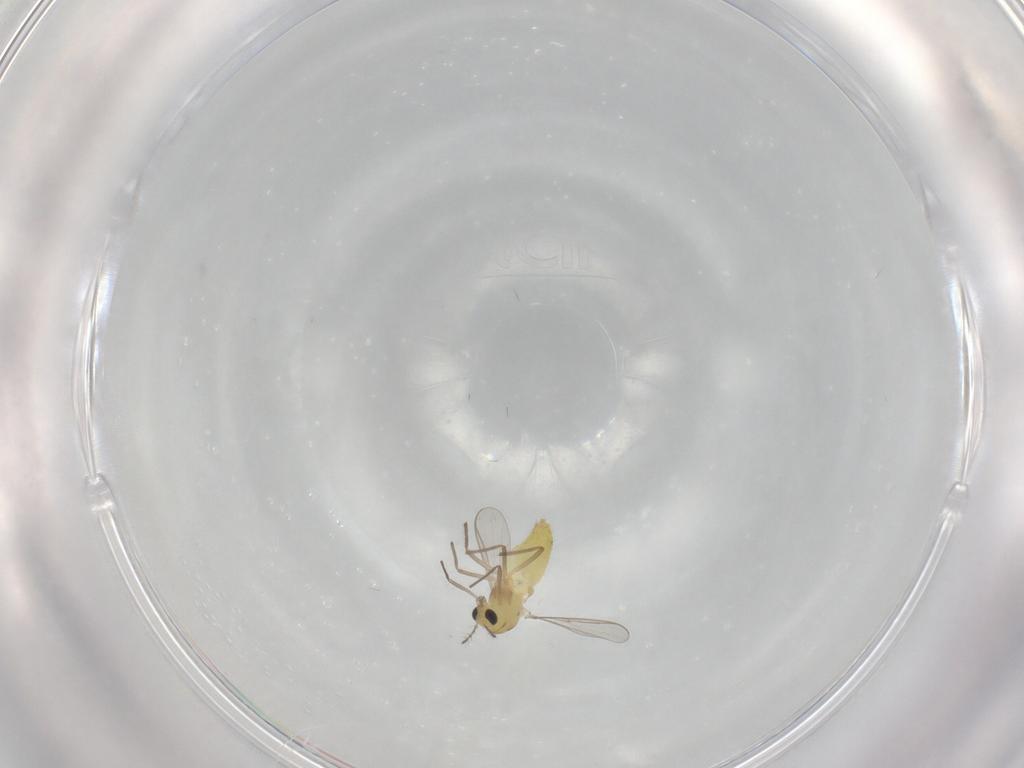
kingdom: Animalia
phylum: Arthropoda
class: Insecta
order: Diptera
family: Chironomidae
